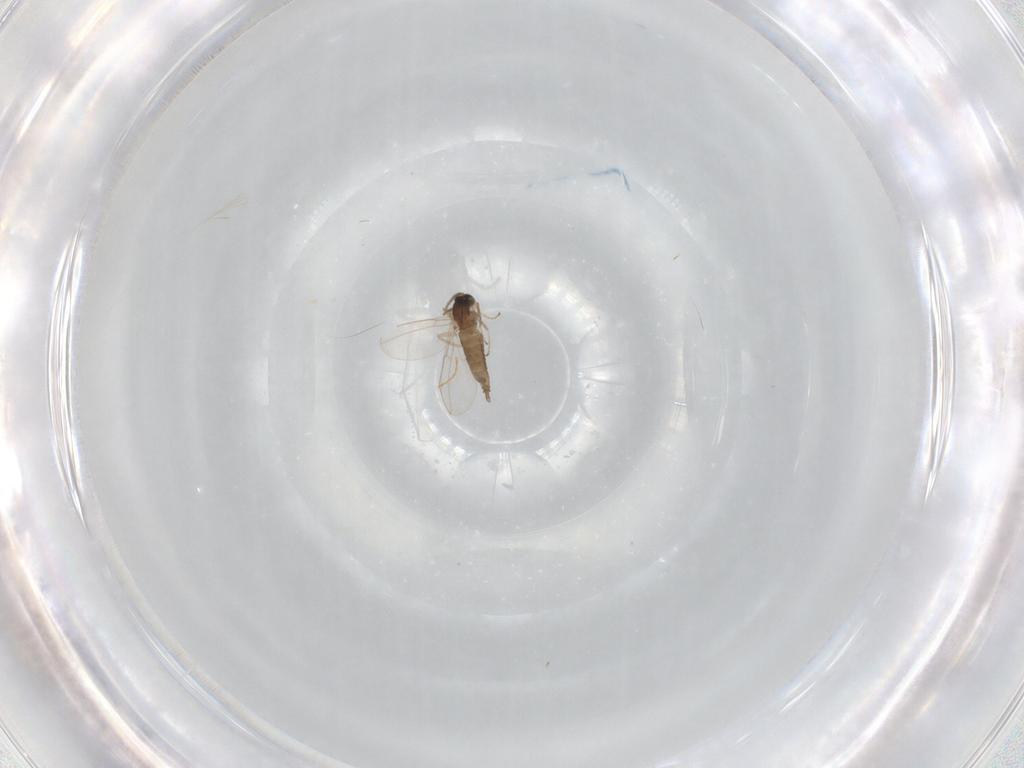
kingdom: Animalia
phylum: Arthropoda
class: Insecta
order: Diptera
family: Cecidomyiidae
